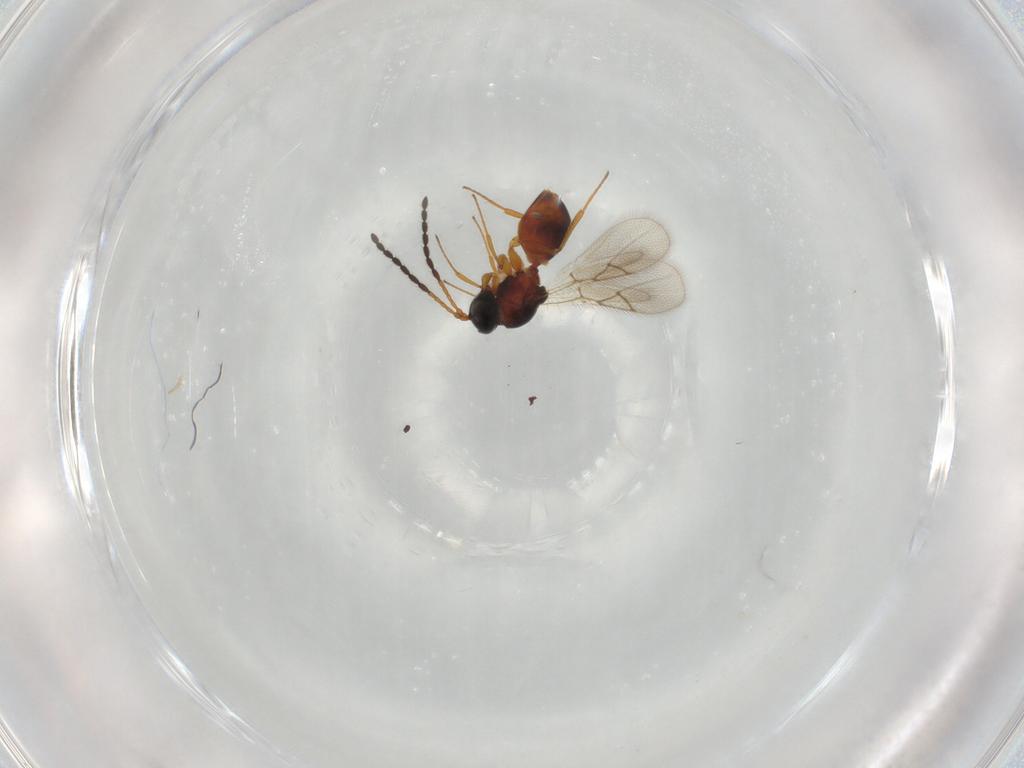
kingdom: Animalia
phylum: Arthropoda
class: Insecta
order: Hymenoptera
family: Figitidae
